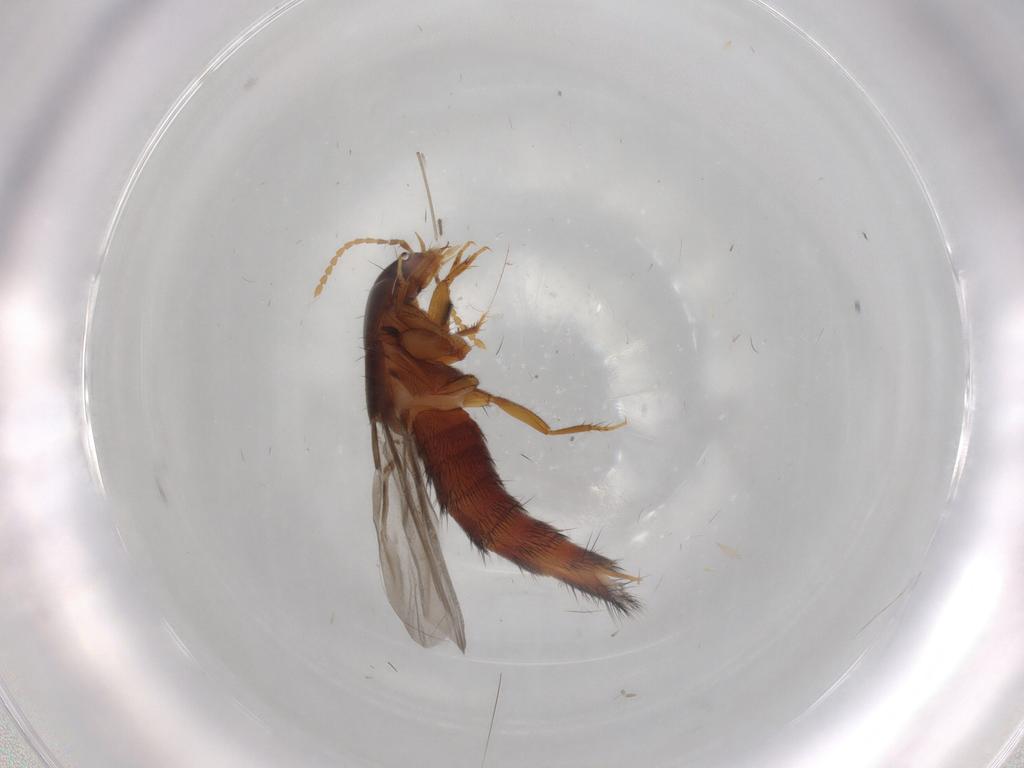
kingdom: Animalia
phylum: Arthropoda
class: Insecta
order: Coleoptera
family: Staphylinidae
